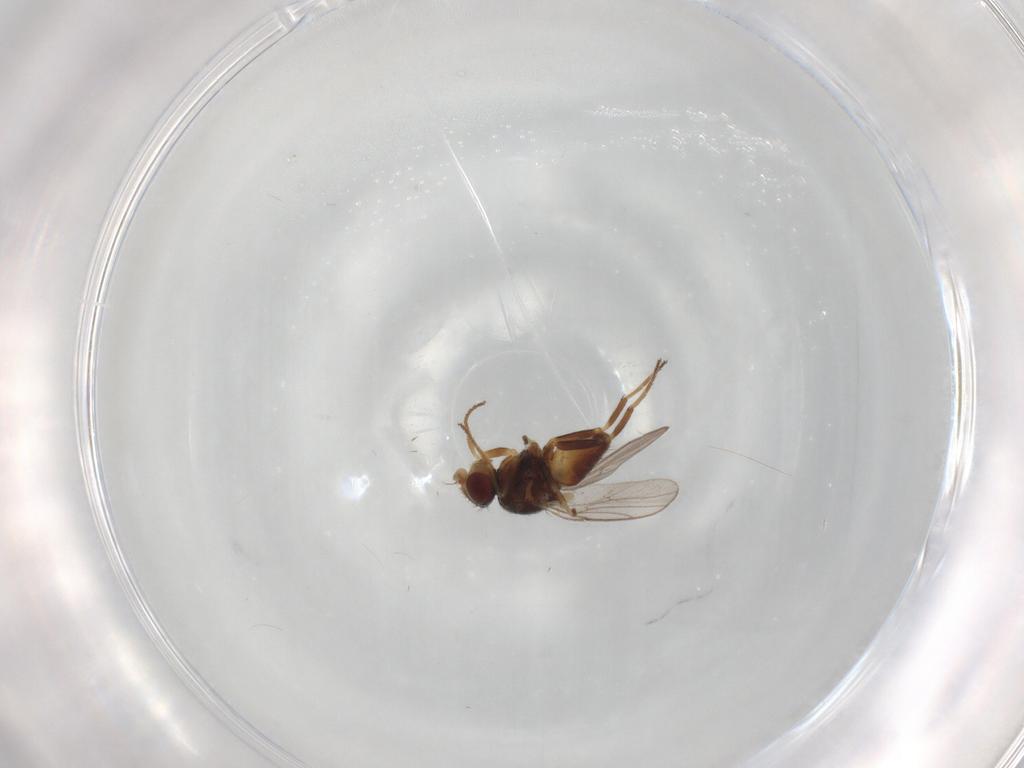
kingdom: Animalia
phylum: Arthropoda
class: Insecta
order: Diptera
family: Chloropidae
